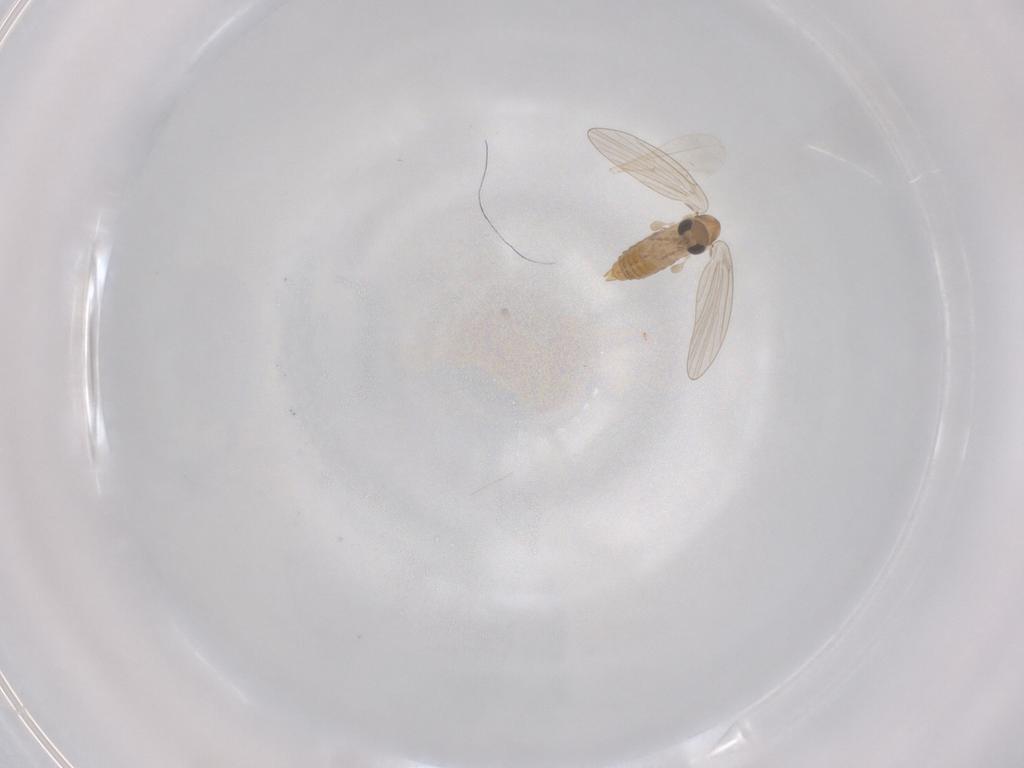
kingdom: Animalia
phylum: Arthropoda
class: Insecta
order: Diptera
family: Psychodidae
